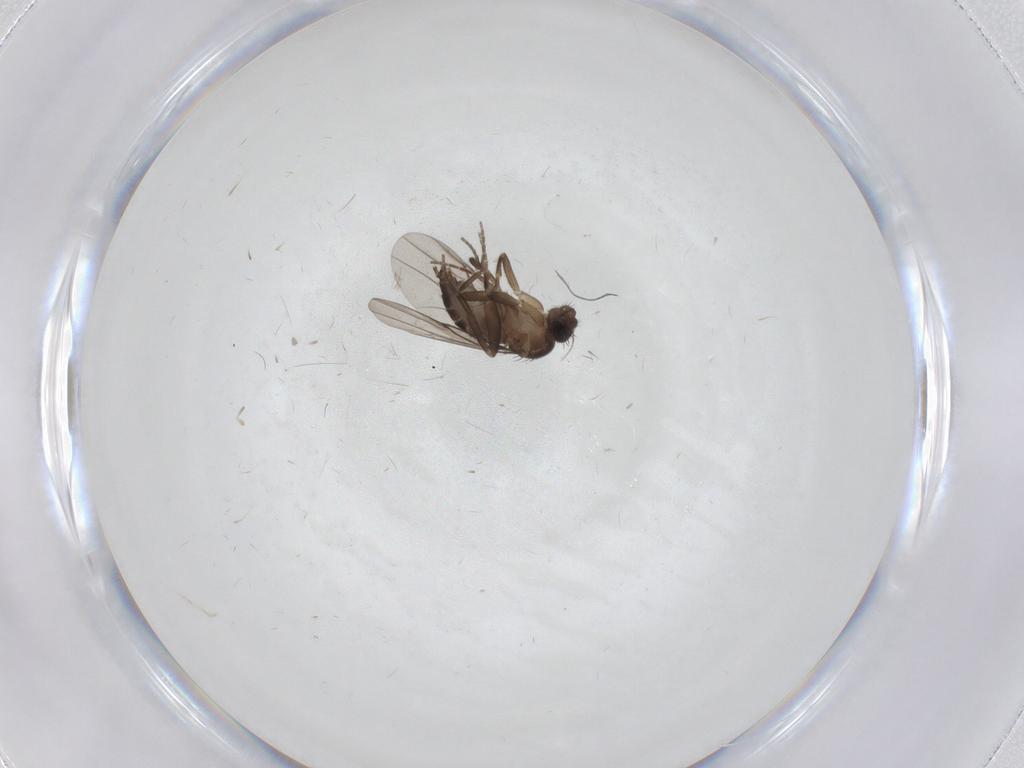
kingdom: Animalia
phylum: Arthropoda
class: Insecta
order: Diptera
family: Phoridae
